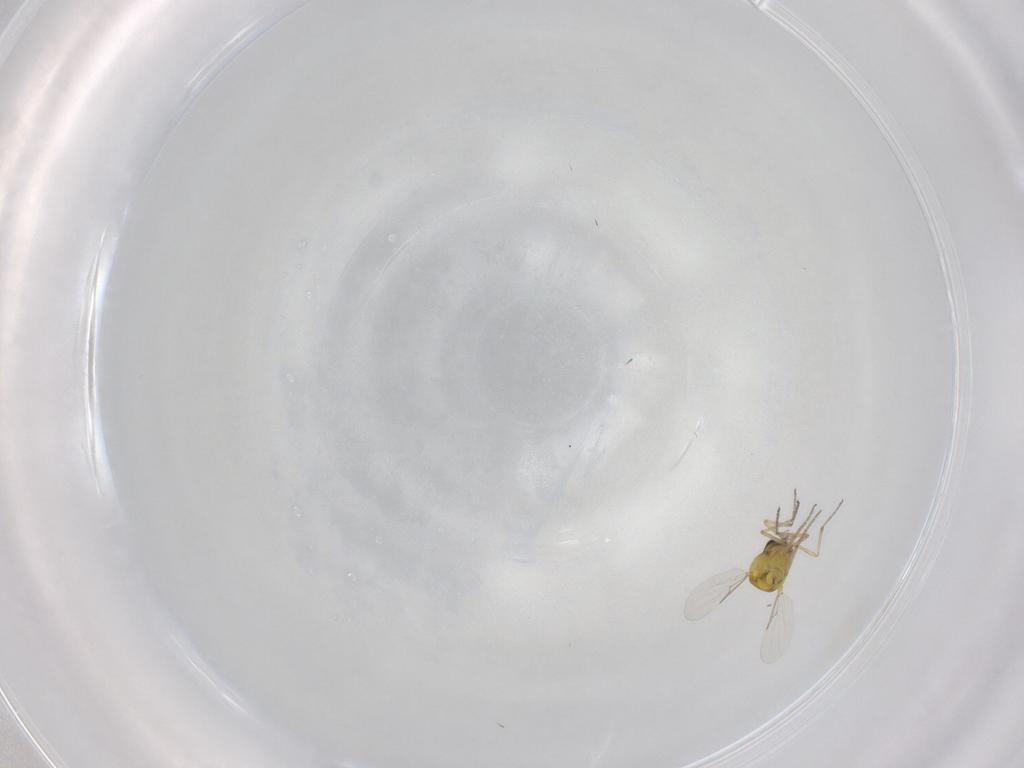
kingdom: Animalia
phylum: Arthropoda
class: Insecta
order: Diptera
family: Ceratopogonidae
